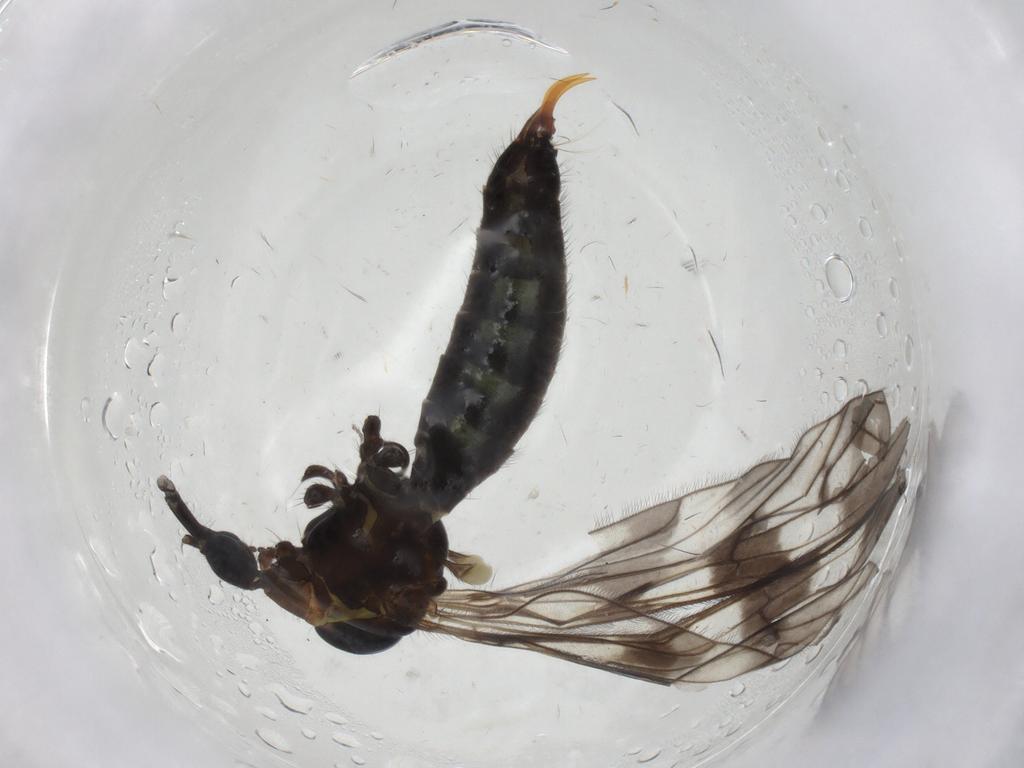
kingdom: Animalia
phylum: Arthropoda
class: Insecta
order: Diptera
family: Limoniidae
